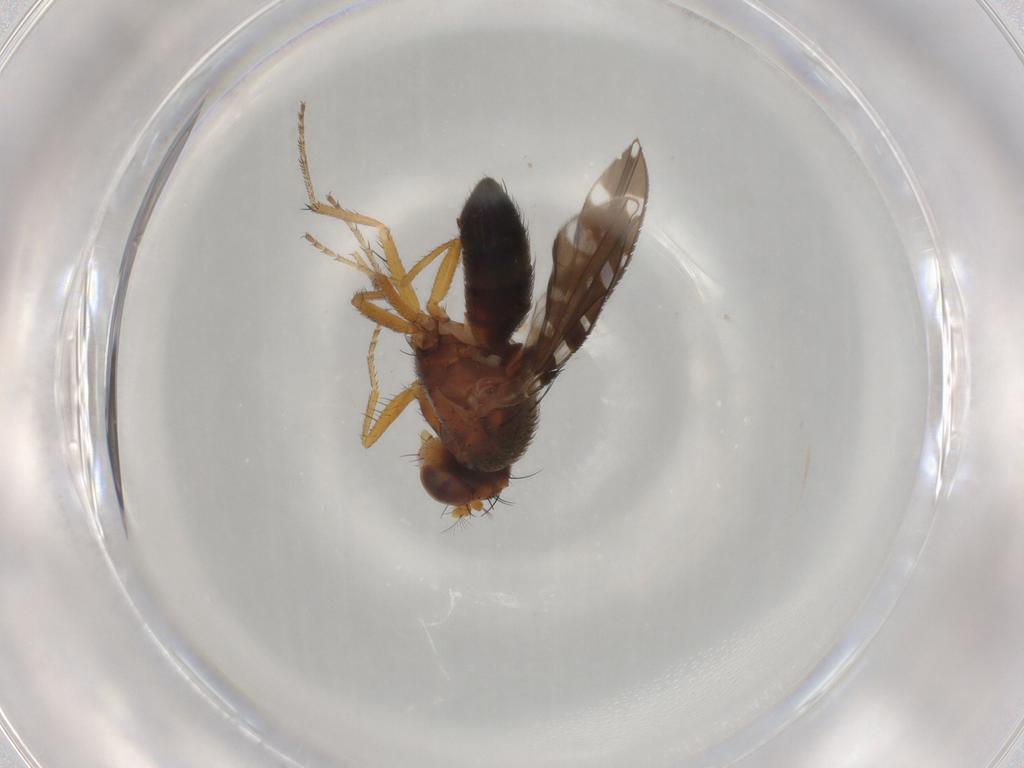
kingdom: Animalia
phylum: Arthropoda
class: Insecta
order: Diptera
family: Ephydridae
